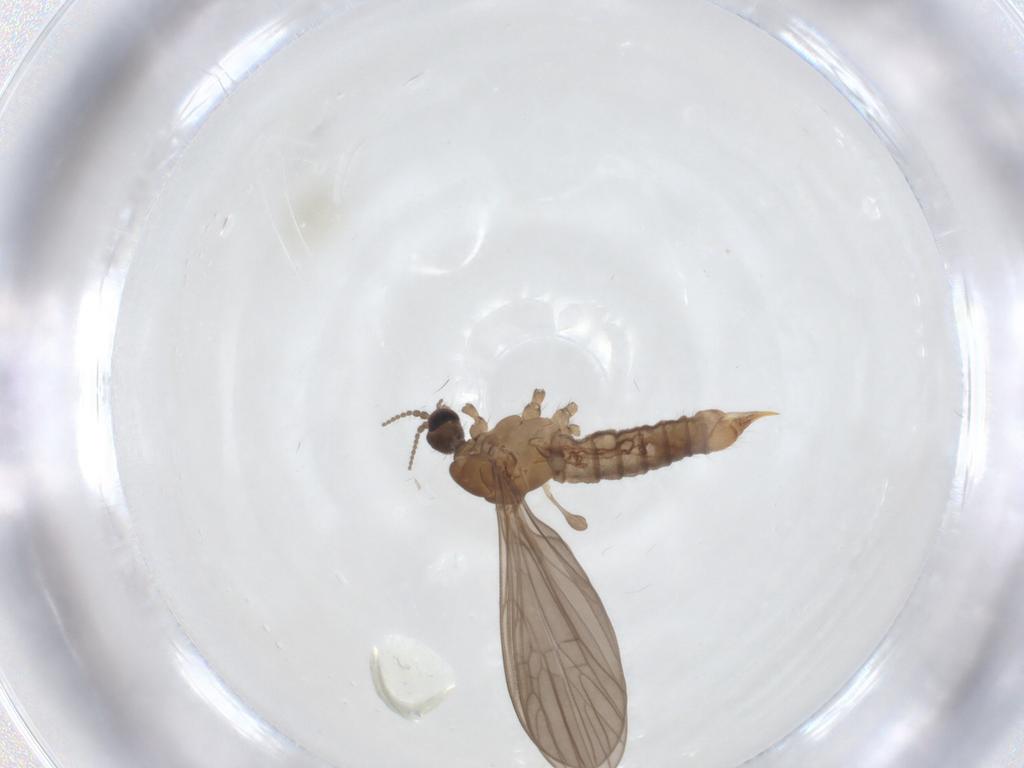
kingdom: Animalia
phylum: Arthropoda
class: Insecta
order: Diptera
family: Limoniidae
